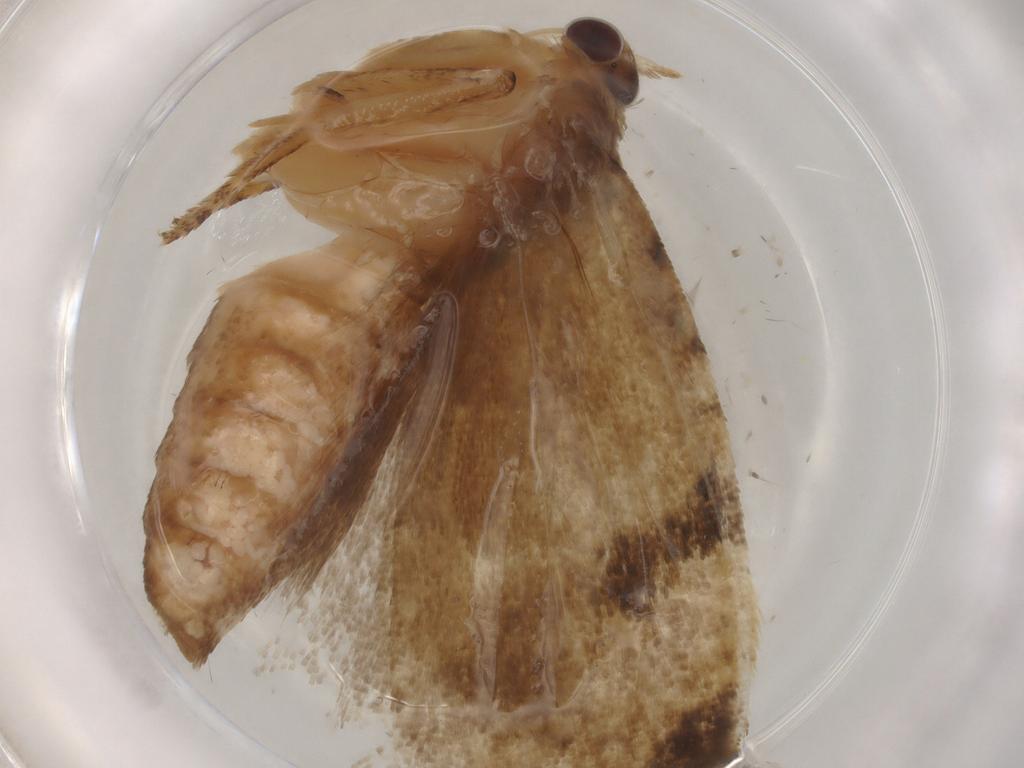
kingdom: Animalia
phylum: Arthropoda
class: Insecta
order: Lepidoptera
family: Tortricidae
